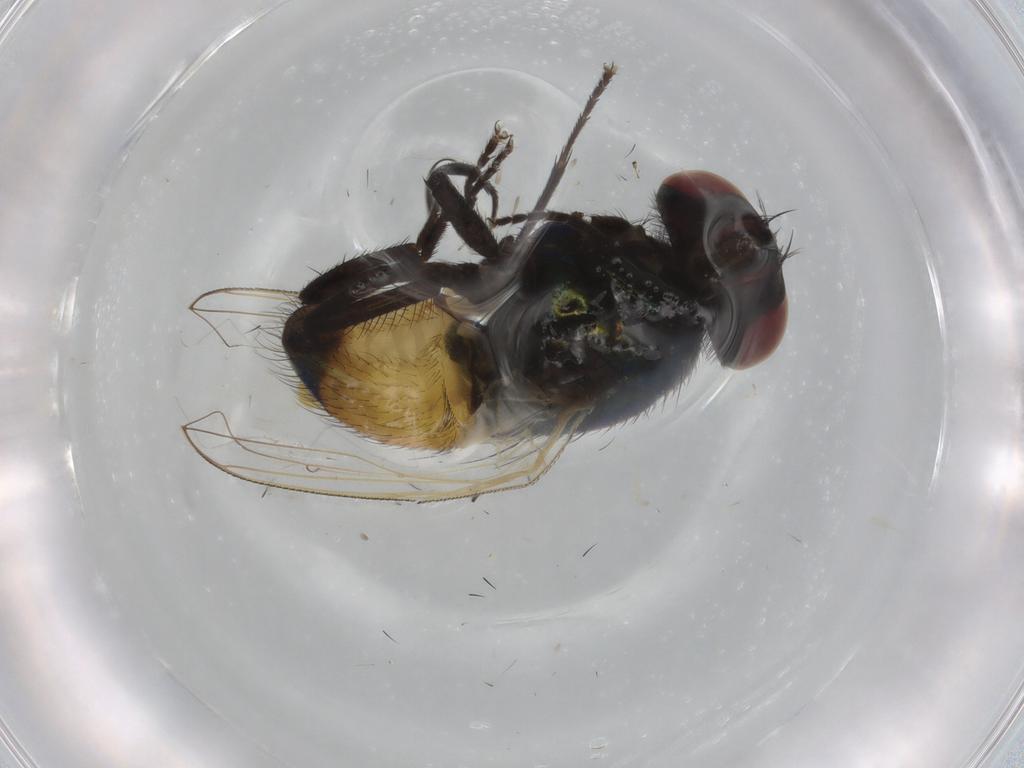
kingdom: Animalia
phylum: Arthropoda
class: Insecta
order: Diptera
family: Muscidae
